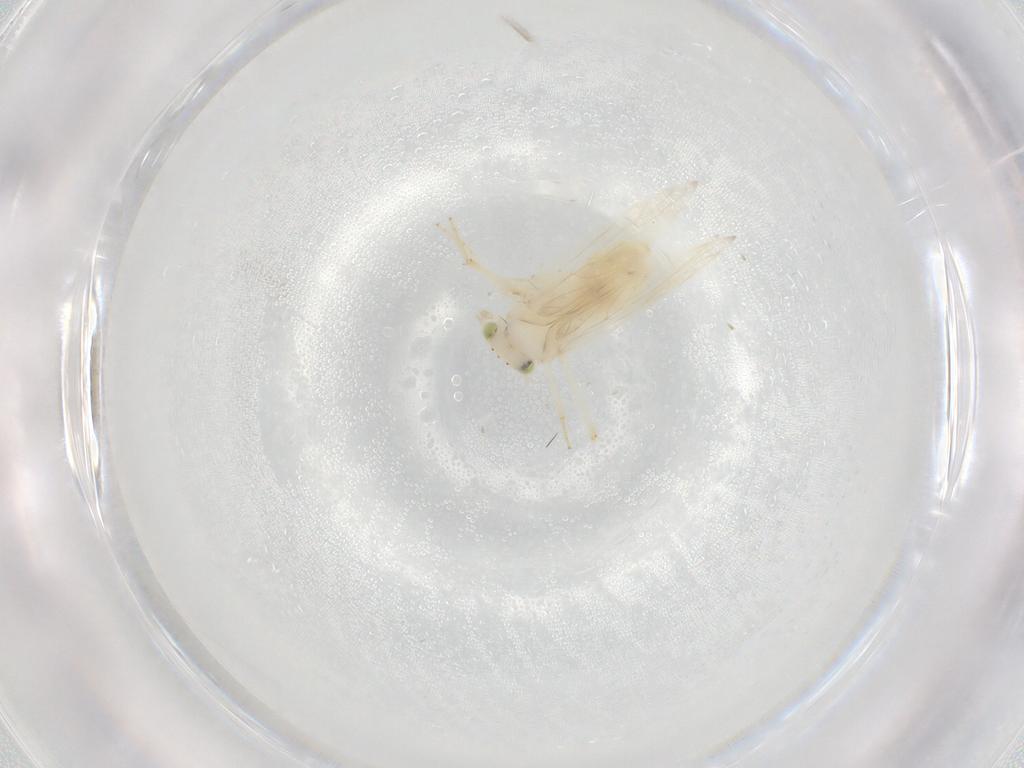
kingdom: Animalia
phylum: Arthropoda
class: Insecta
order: Psocodea
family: Lepidopsocidae
